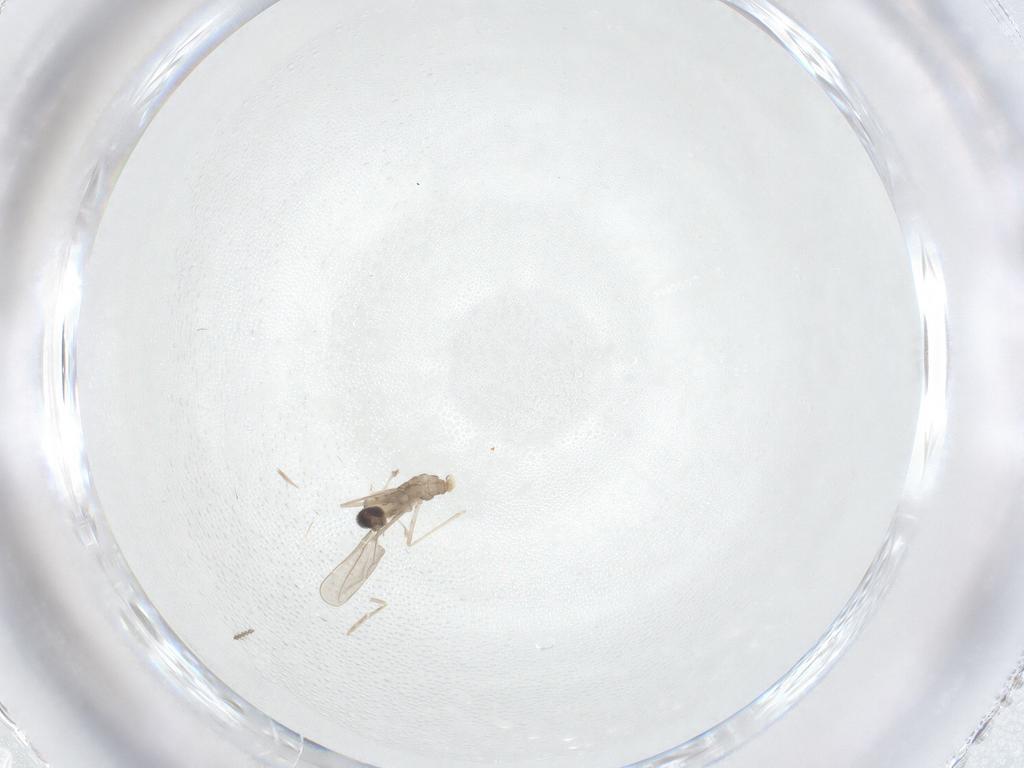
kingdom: Animalia
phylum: Arthropoda
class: Insecta
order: Diptera
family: Cecidomyiidae
